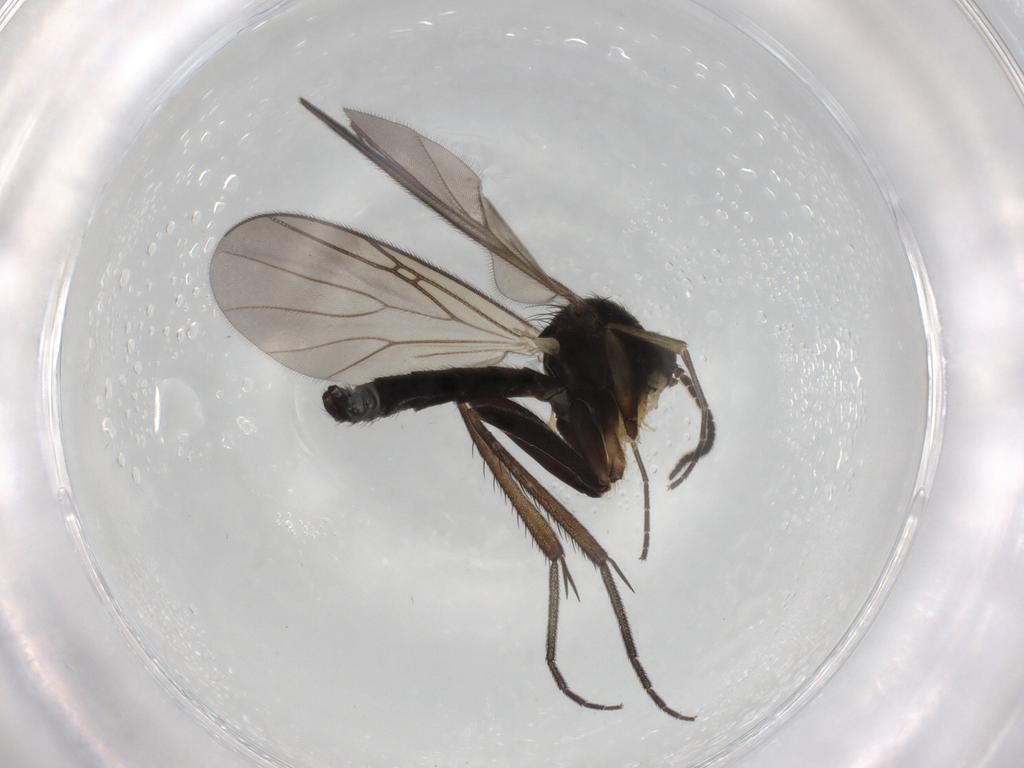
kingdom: Animalia
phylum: Arthropoda
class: Insecta
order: Diptera
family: Mycetophilidae
